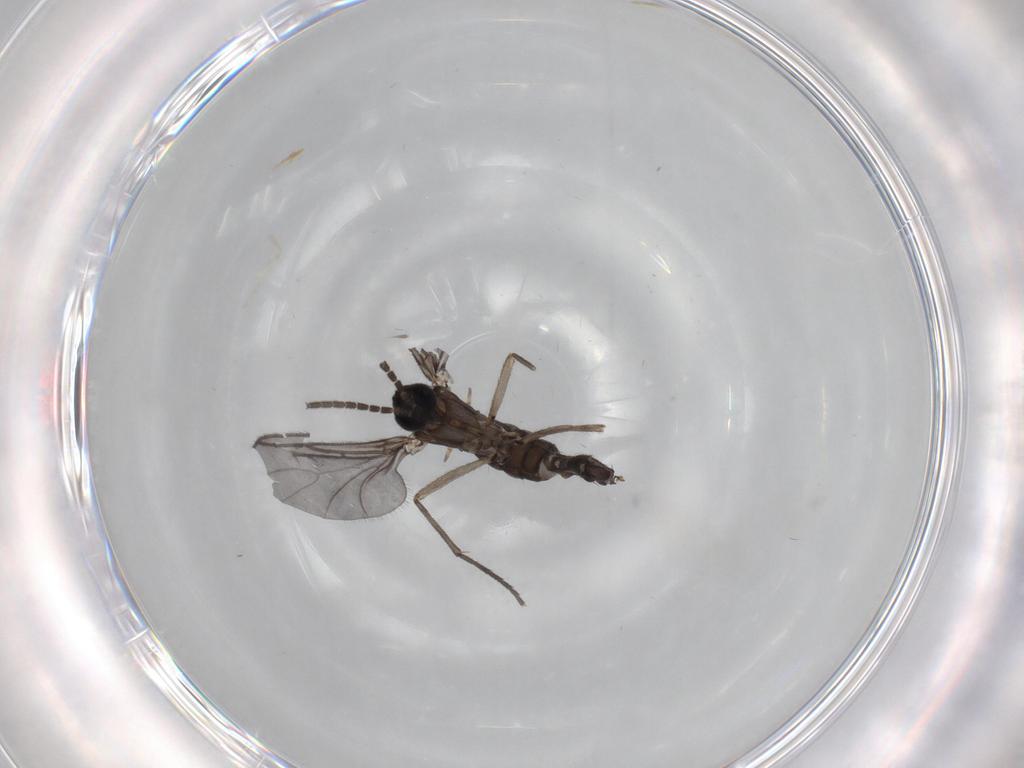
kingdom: Animalia
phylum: Arthropoda
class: Insecta
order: Diptera
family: Sciaridae
